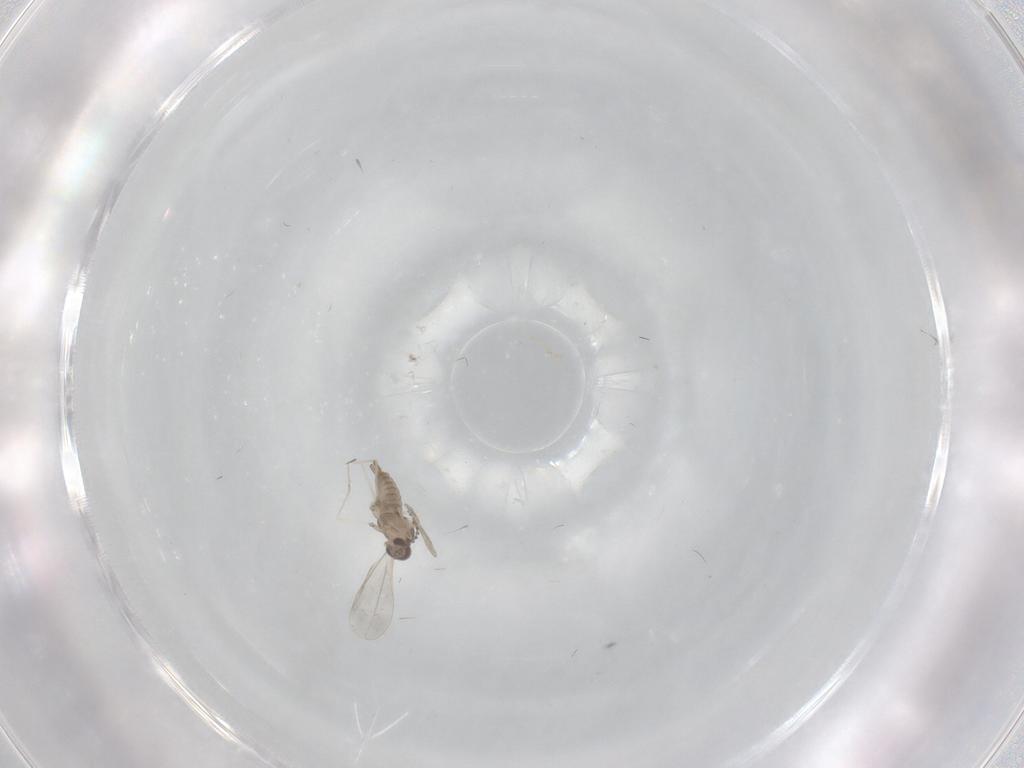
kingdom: Animalia
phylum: Arthropoda
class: Insecta
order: Diptera
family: Cecidomyiidae
